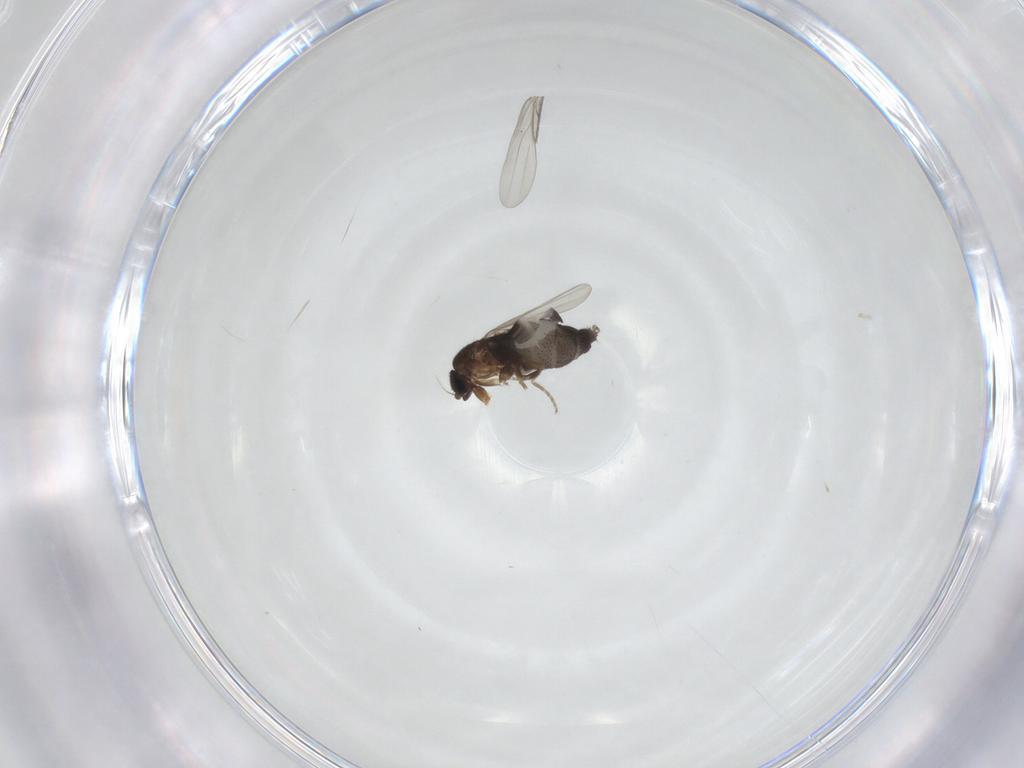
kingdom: Animalia
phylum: Arthropoda
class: Insecta
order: Diptera
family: Phoridae
